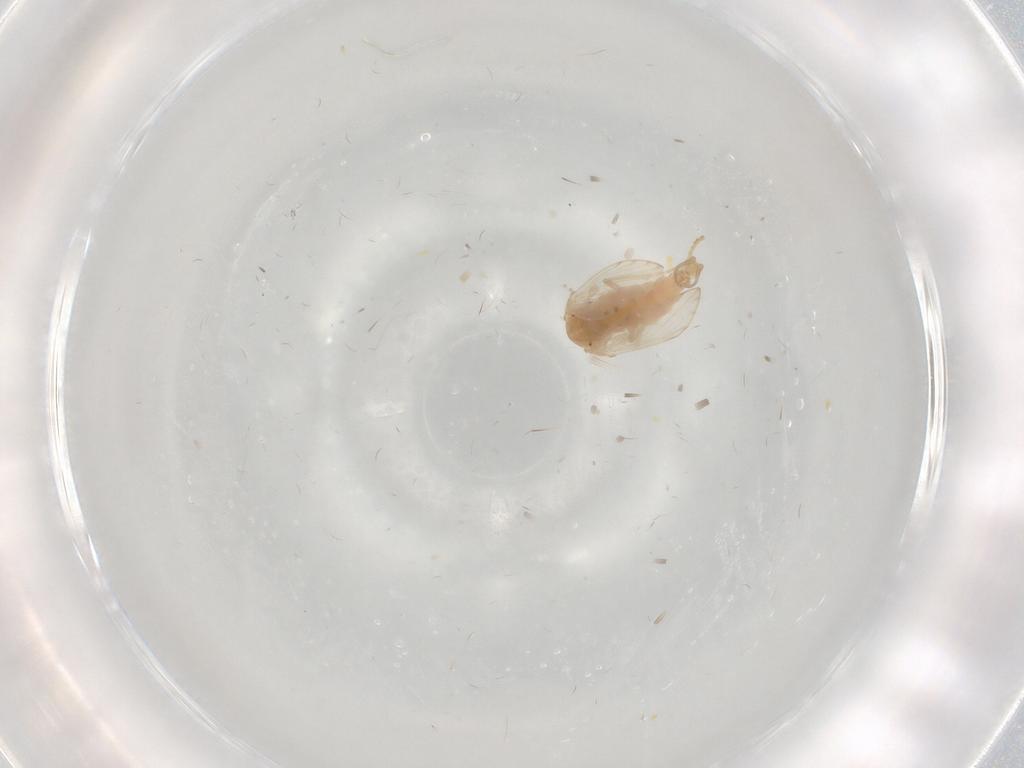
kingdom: Animalia
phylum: Arthropoda
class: Insecta
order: Diptera
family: Psychodidae
